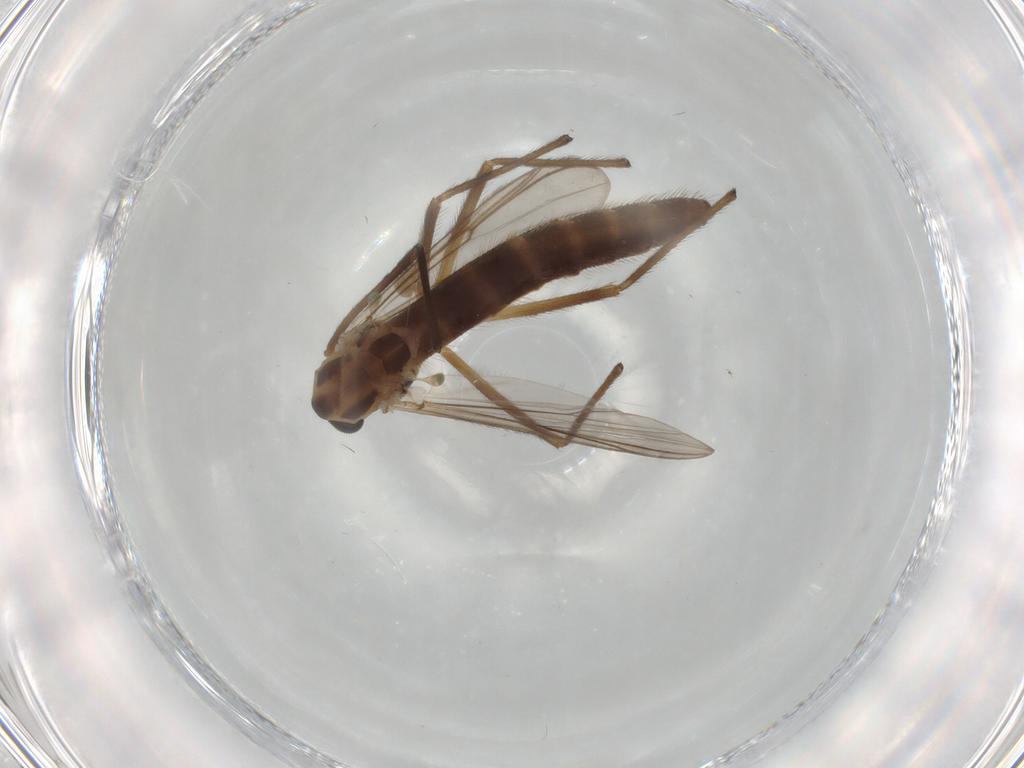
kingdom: Animalia
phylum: Arthropoda
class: Insecta
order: Diptera
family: Chironomidae
